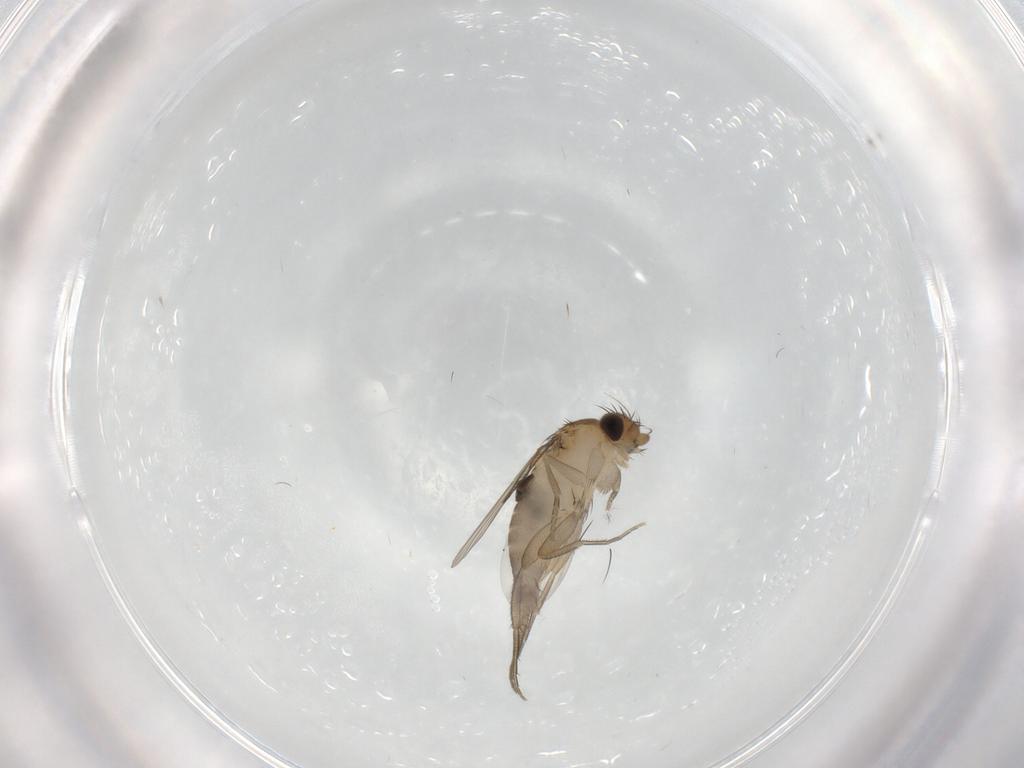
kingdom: Animalia
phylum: Arthropoda
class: Insecta
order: Diptera
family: Phoridae
